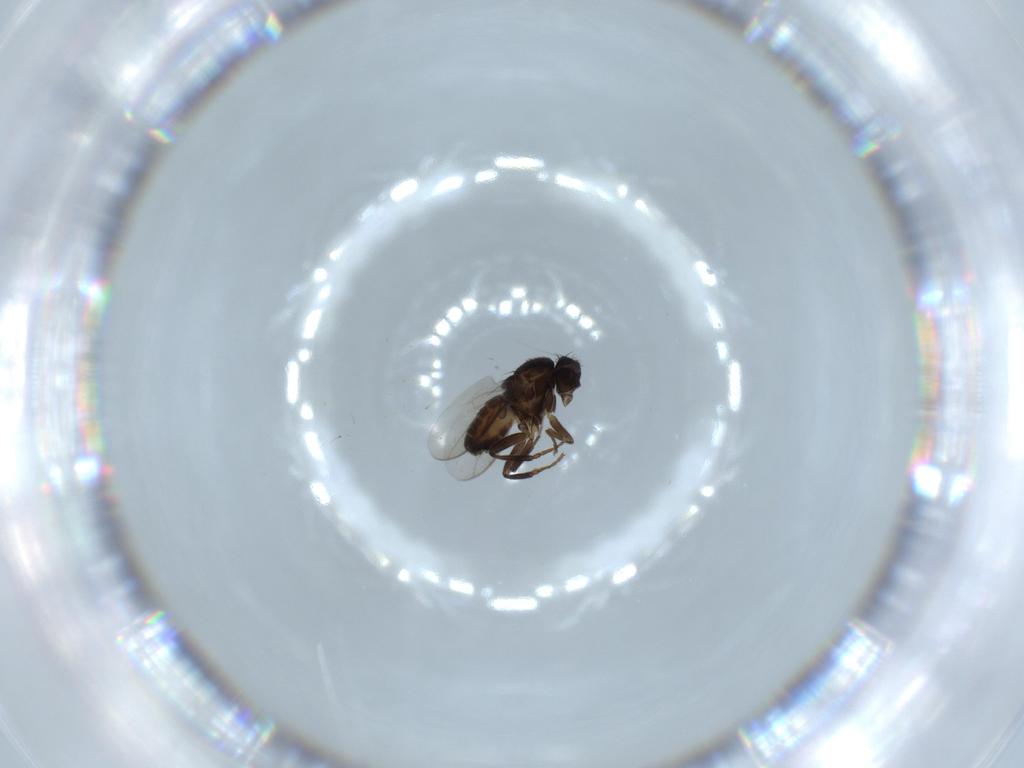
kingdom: Animalia
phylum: Arthropoda
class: Insecta
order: Diptera
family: Sphaeroceridae
